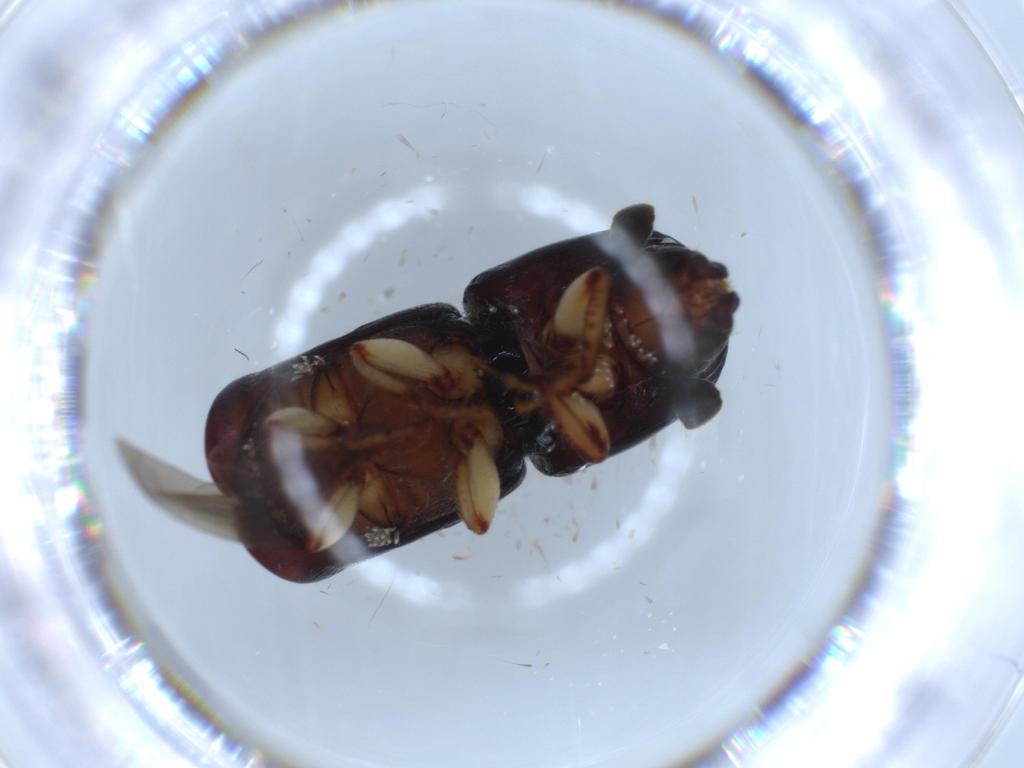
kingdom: Animalia
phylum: Arthropoda
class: Insecta
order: Coleoptera
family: Curculionidae
